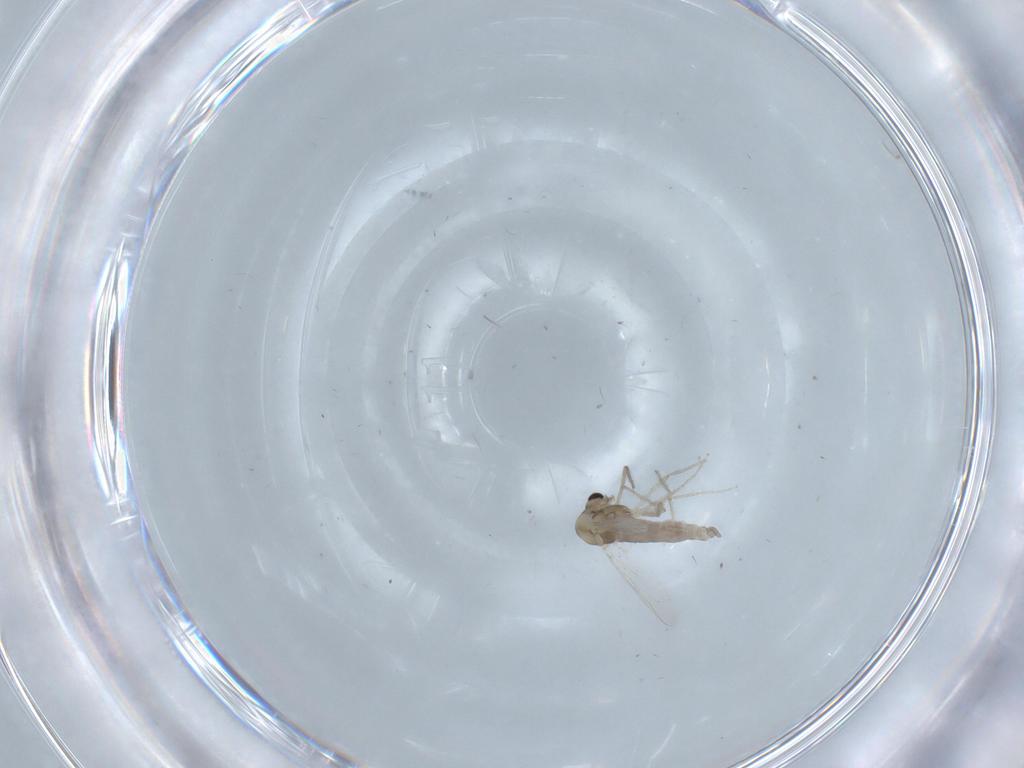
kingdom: Animalia
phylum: Arthropoda
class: Insecta
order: Diptera
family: Chironomidae
